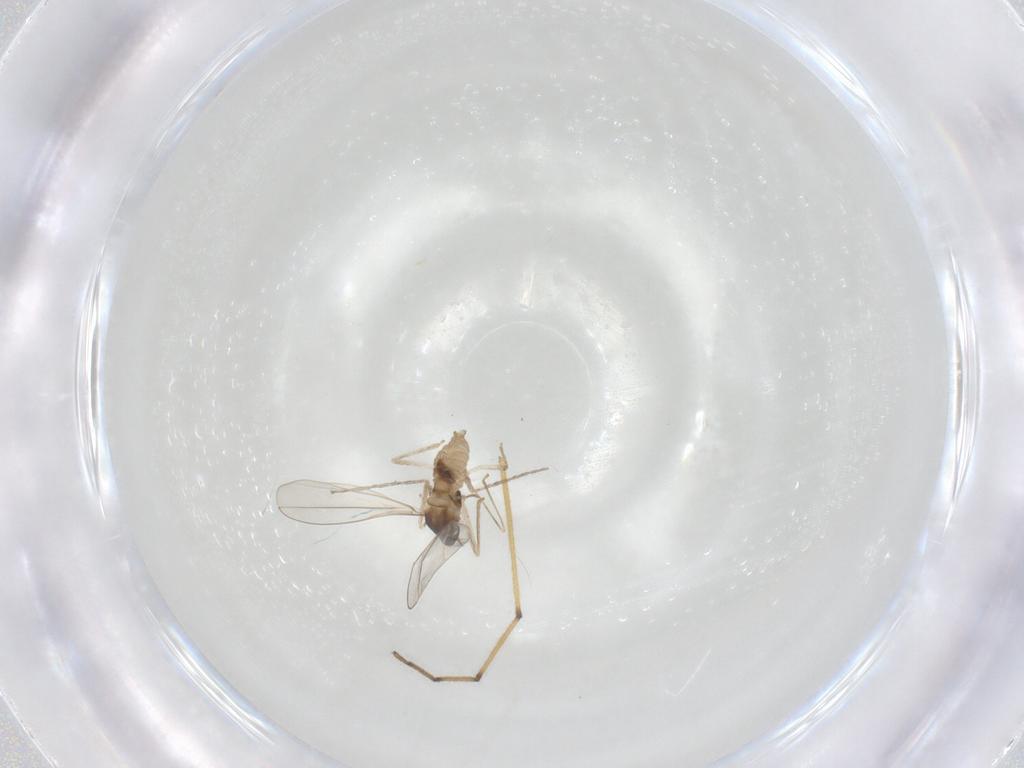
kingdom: Animalia
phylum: Arthropoda
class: Insecta
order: Diptera
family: Cecidomyiidae
